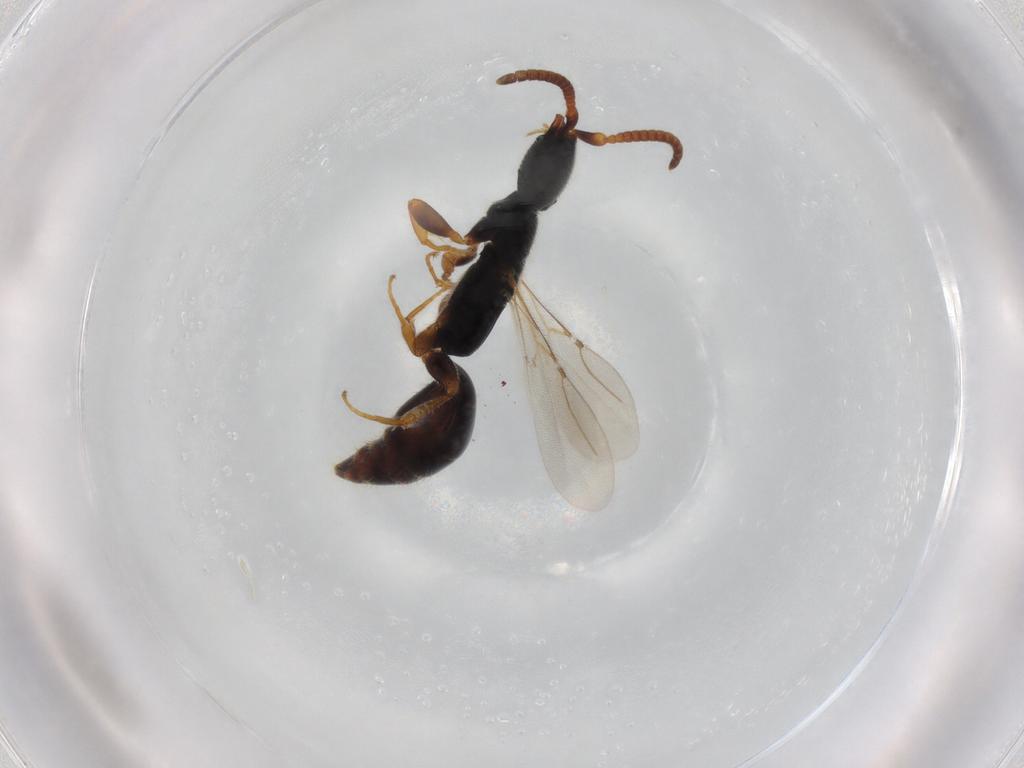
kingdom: Animalia
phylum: Arthropoda
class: Insecta
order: Hymenoptera
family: Bethylidae
